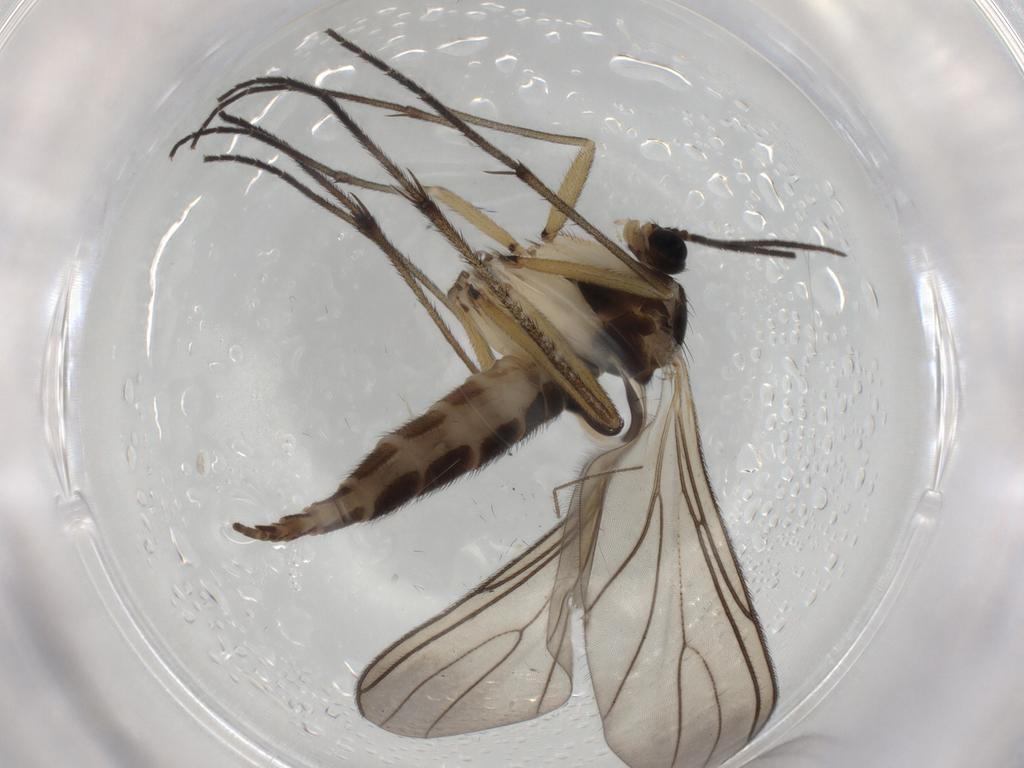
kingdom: Animalia
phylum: Arthropoda
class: Insecta
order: Diptera
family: Sciaridae
